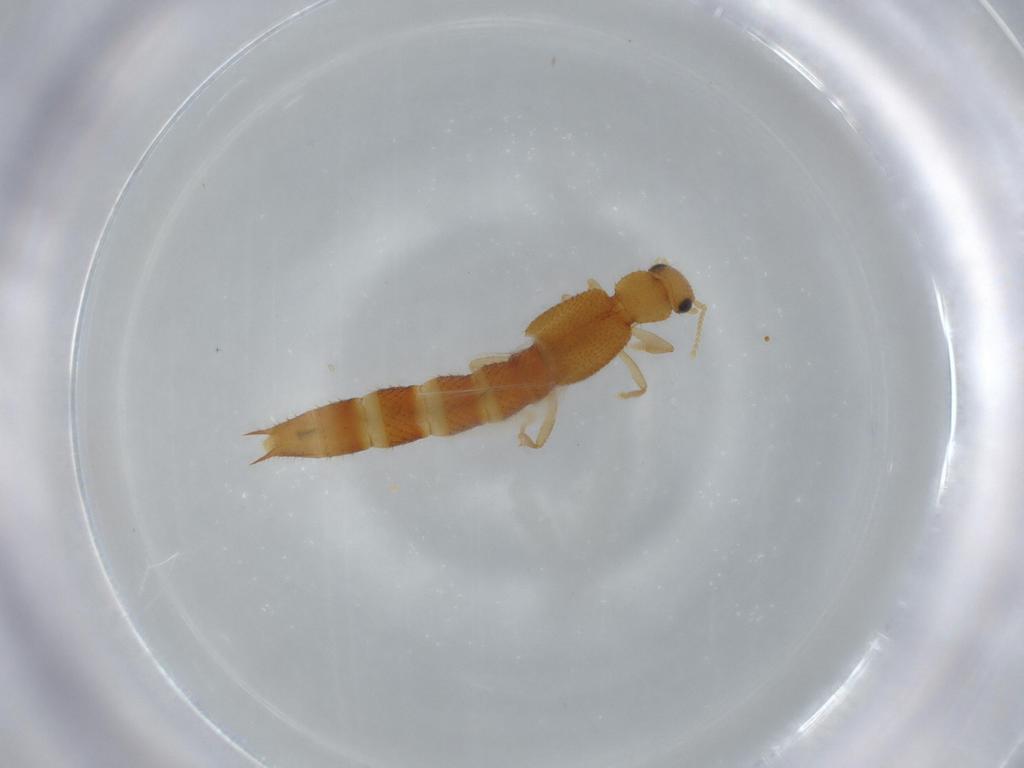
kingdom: Animalia
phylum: Arthropoda
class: Insecta
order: Coleoptera
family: Staphylinidae
